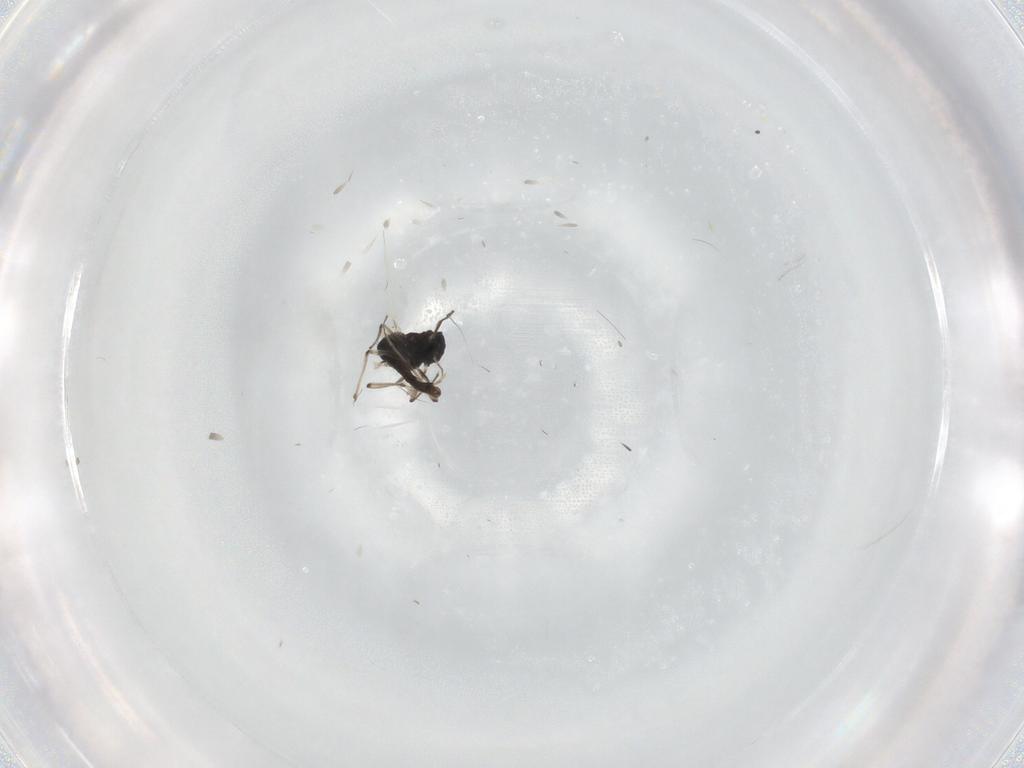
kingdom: Animalia
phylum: Arthropoda
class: Insecta
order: Diptera
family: Chironomidae
